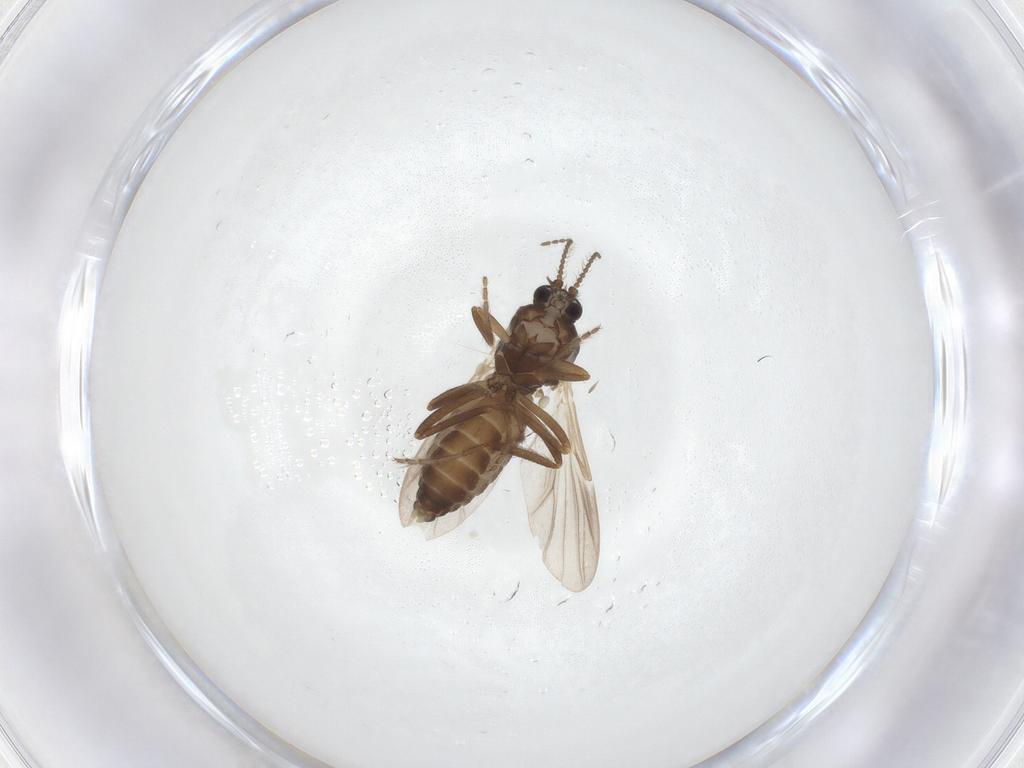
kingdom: Animalia
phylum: Arthropoda
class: Insecta
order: Diptera
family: Ceratopogonidae
